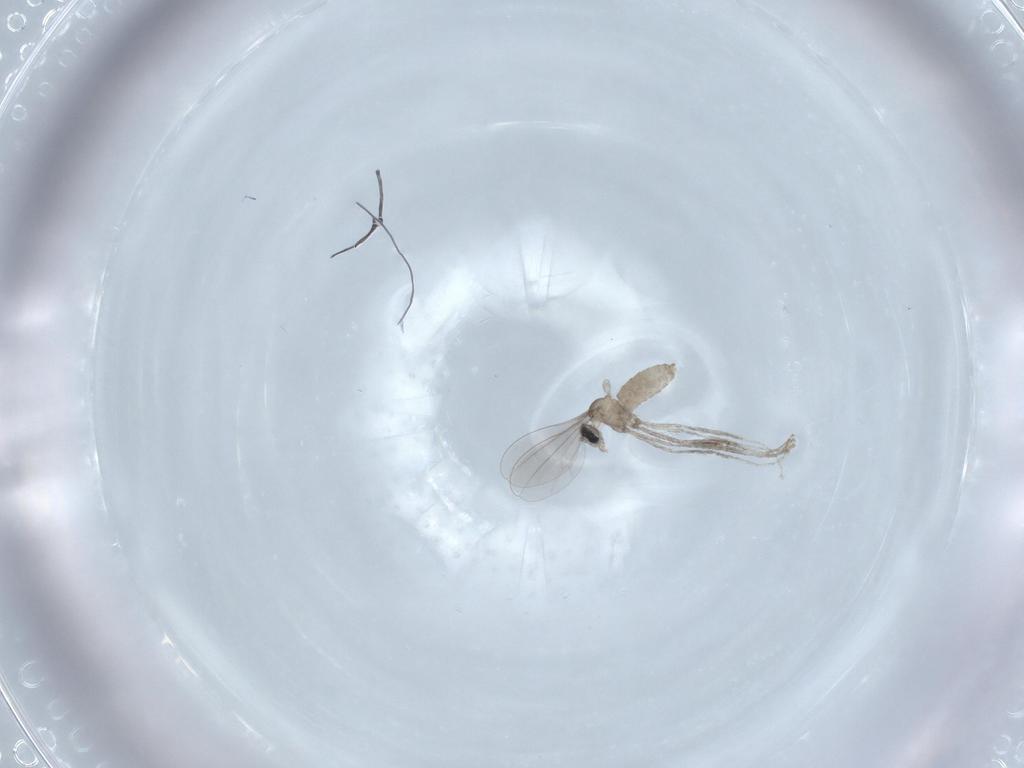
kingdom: Animalia
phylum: Arthropoda
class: Insecta
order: Diptera
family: Cecidomyiidae
